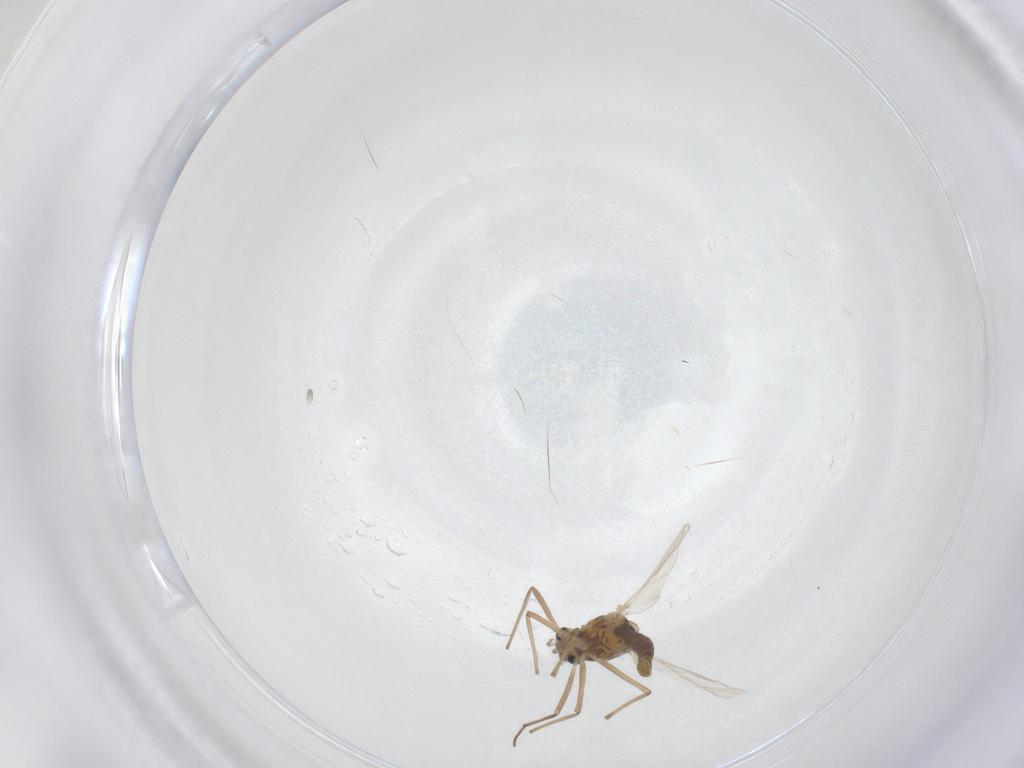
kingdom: Animalia
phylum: Arthropoda
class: Insecta
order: Diptera
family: Chironomidae
